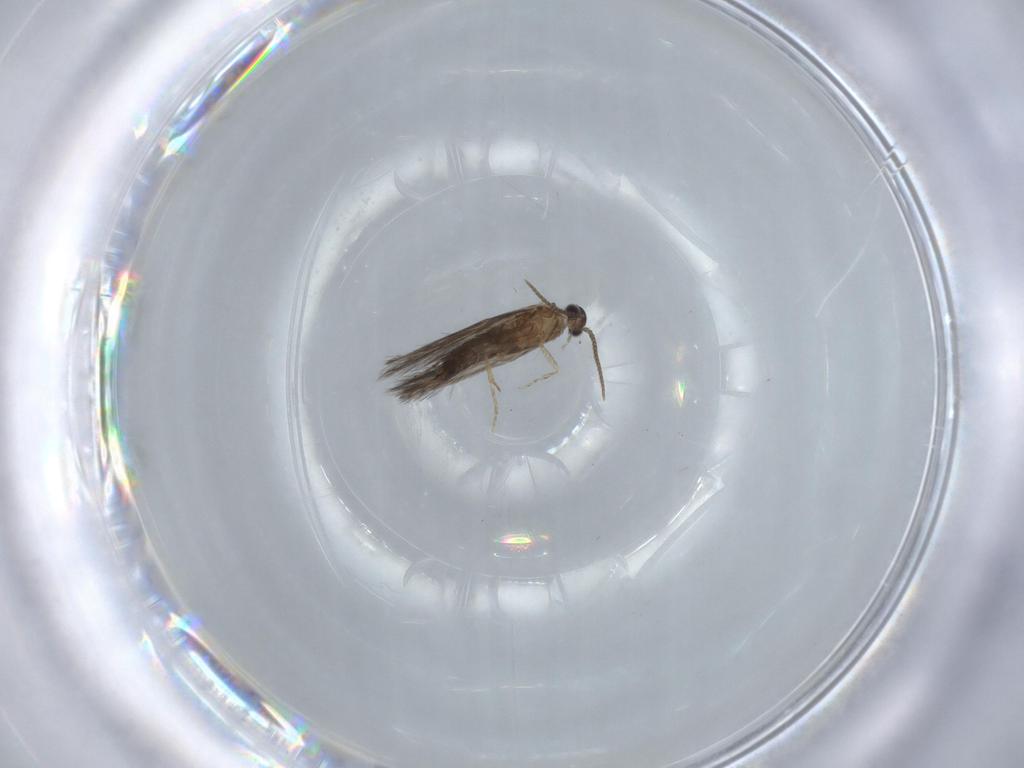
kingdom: Animalia
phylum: Arthropoda
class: Insecta
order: Trichoptera
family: Hydroptilidae
